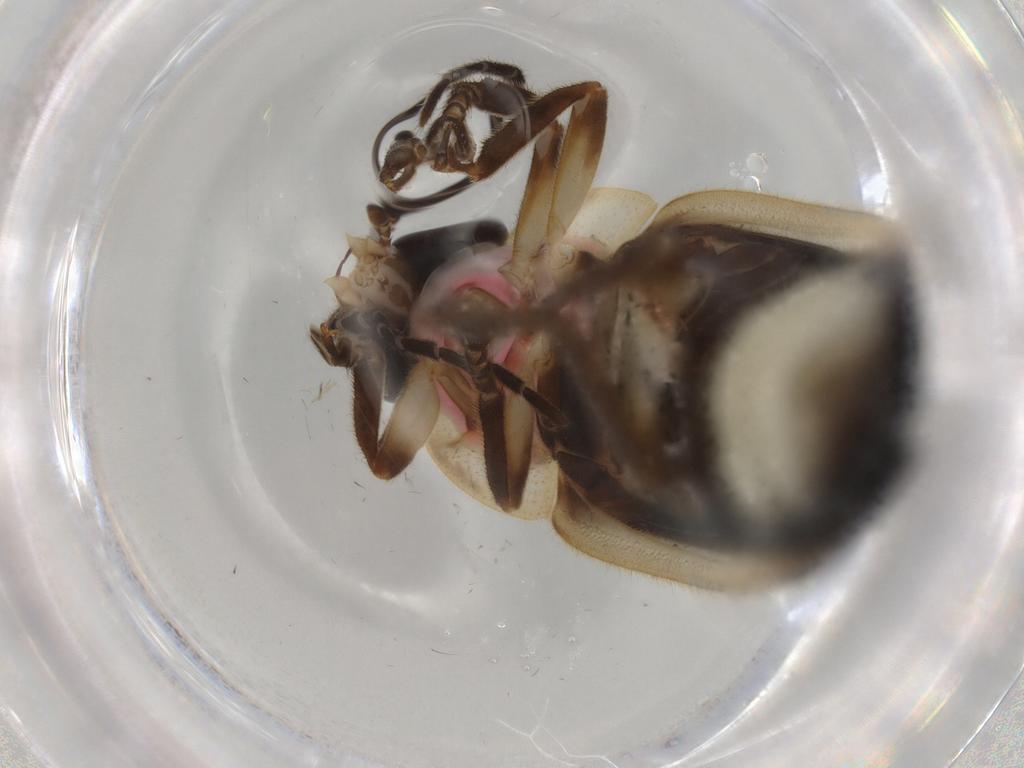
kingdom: Animalia
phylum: Arthropoda
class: Insecta
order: Coleoptera
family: Lampyridae
